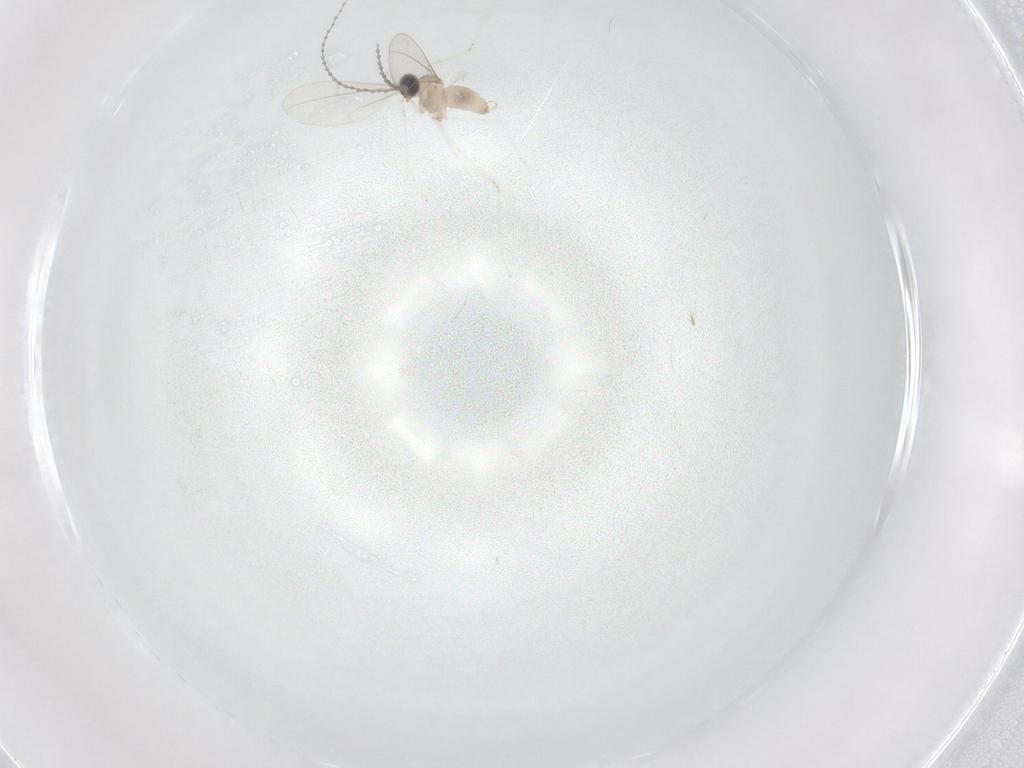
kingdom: Animalia
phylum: Arthropoda
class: Insecta
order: Diptera
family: Cecidomyiidae
